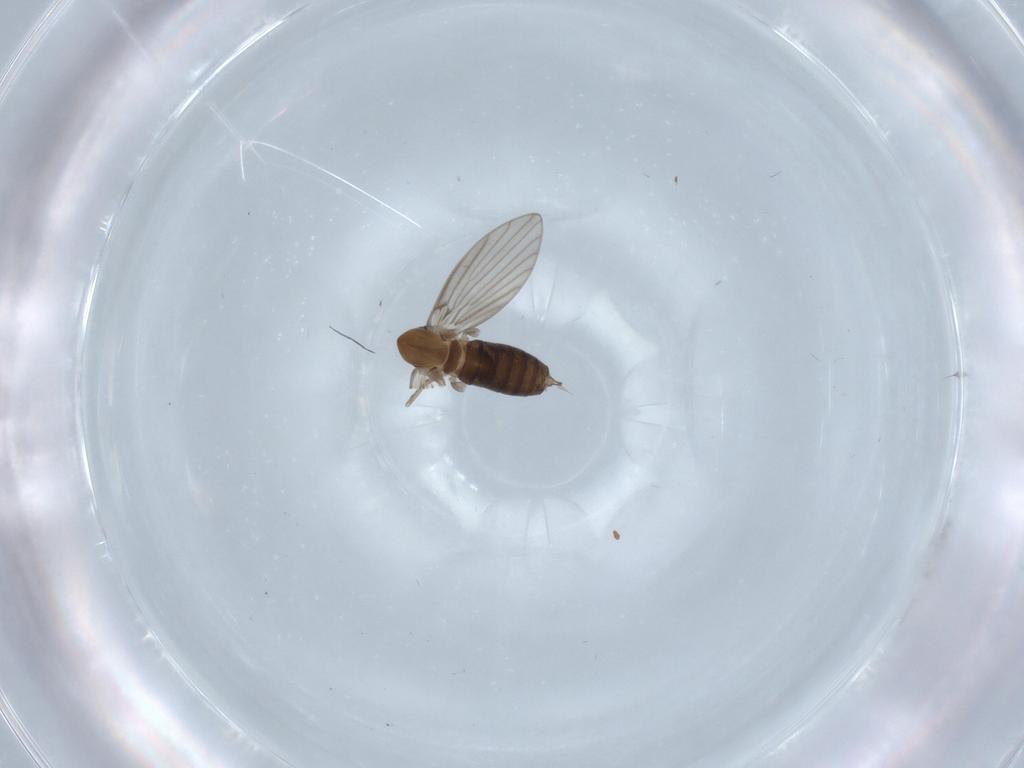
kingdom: Animalia
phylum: Arthropoda
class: Insecta
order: Diptera
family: Psychodidae
